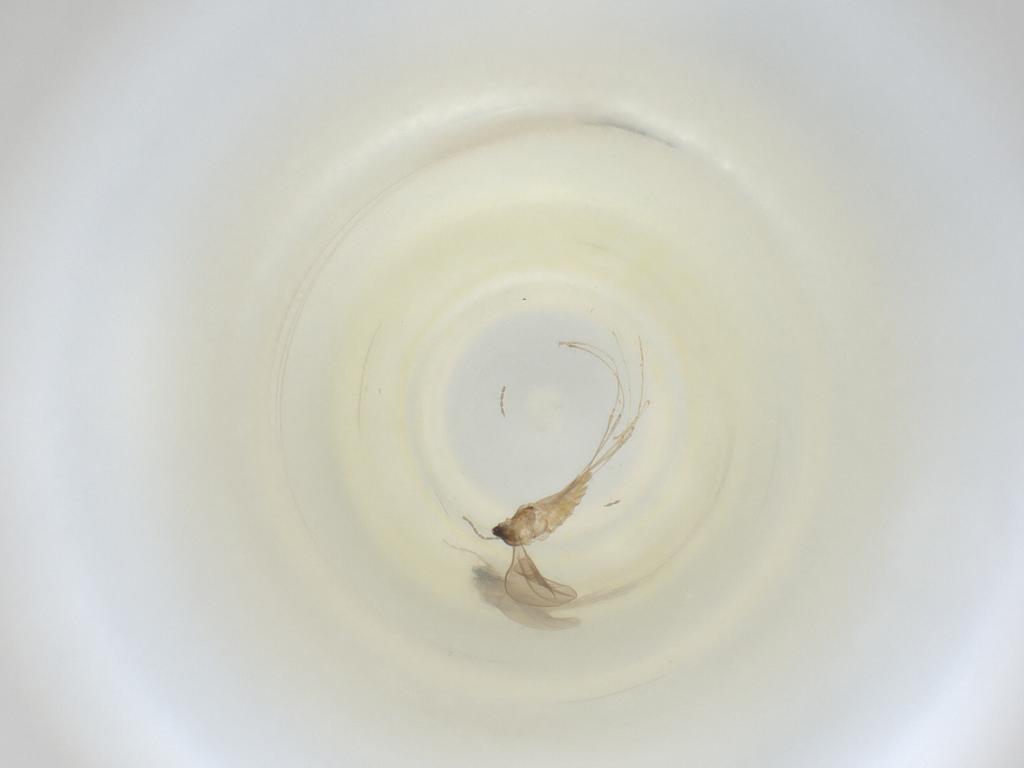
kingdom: Animalia
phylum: Arthropoda
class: Insecta
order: Diptera
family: Cecidomyiidae
